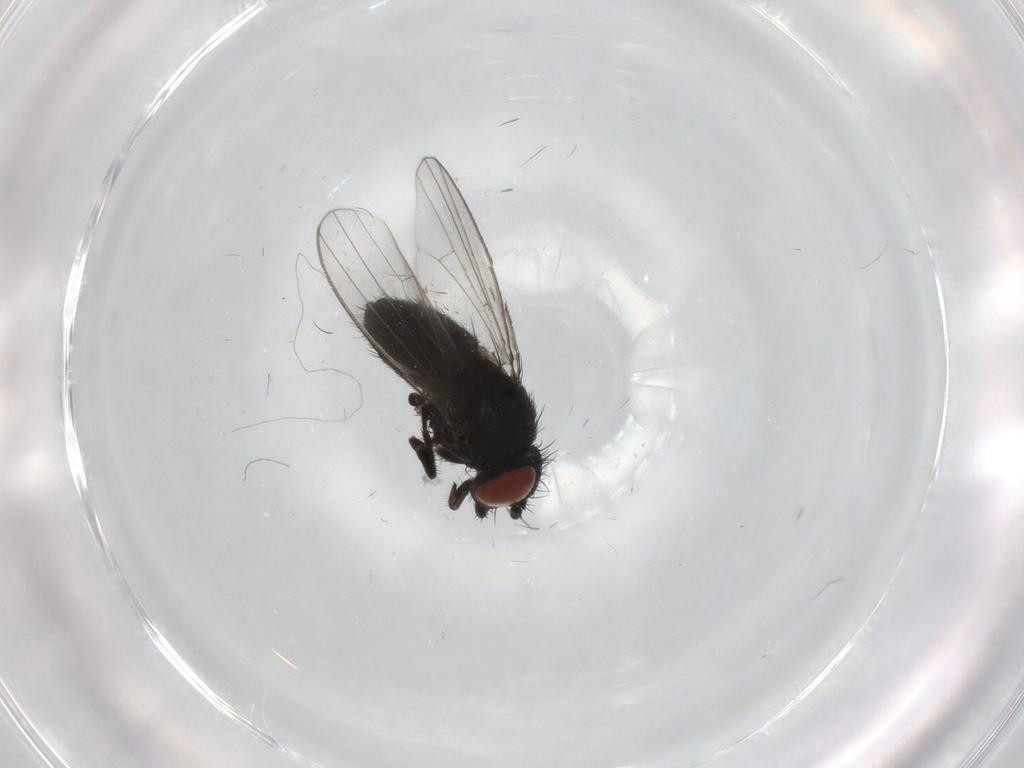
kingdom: Animalia
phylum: Arthropoda
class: Insecta
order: Diptera
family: Milichiidae
